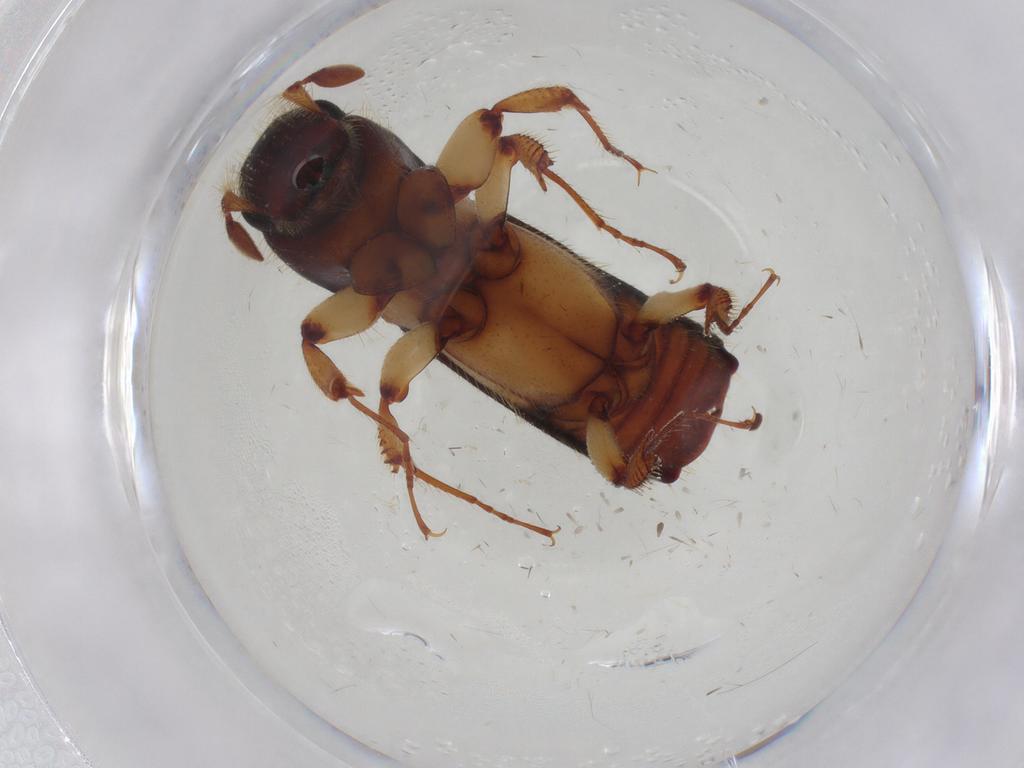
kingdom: Animalia
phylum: Arthropoda
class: Insecta
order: Coleoptera
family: Curculionidae
